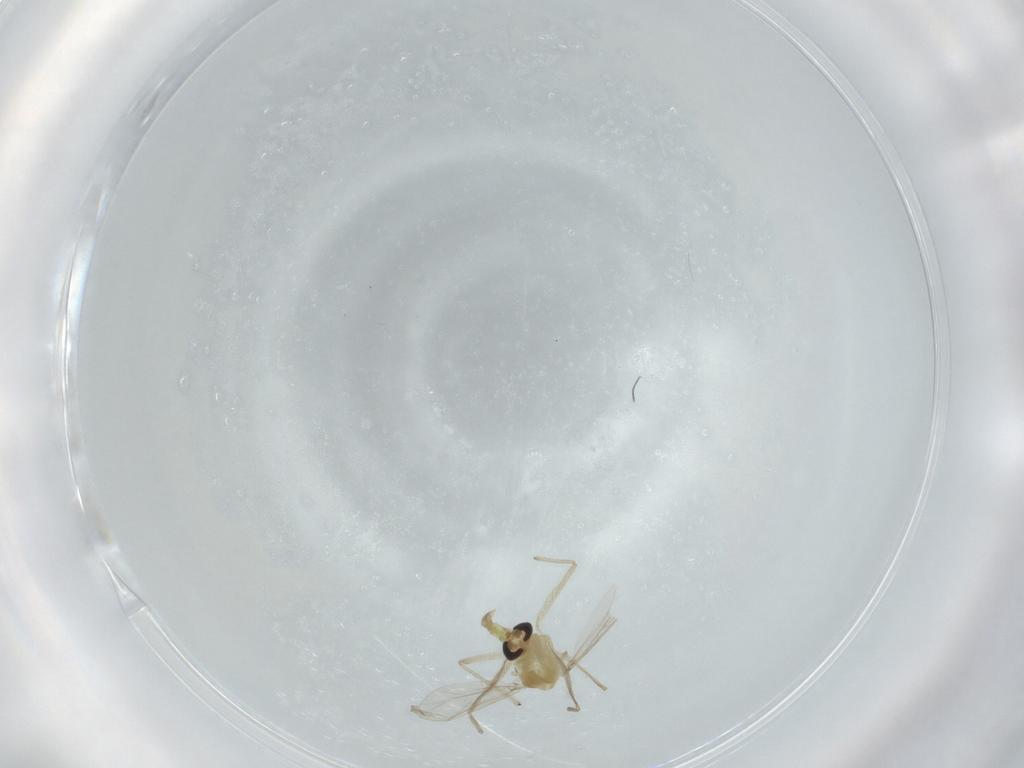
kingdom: Animalia
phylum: Arthropoda
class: Insecta
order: Diptera
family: Chironomidae
